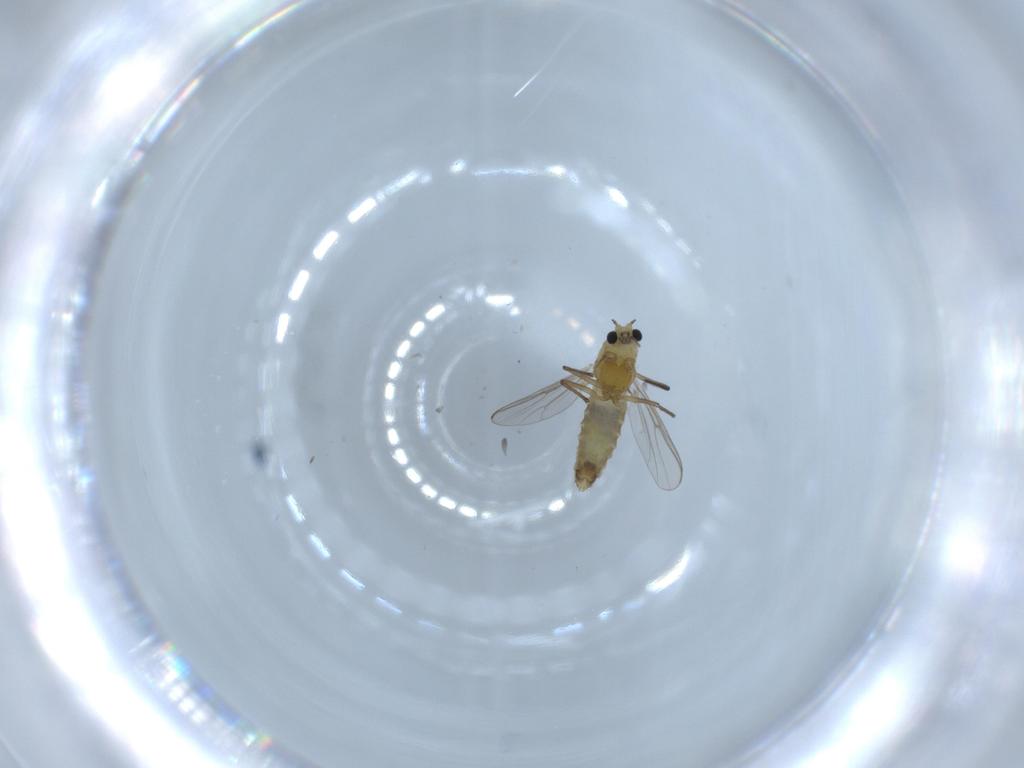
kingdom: Animalia
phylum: Arthropoda
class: Insecta
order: Diptera
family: Chironomidae
